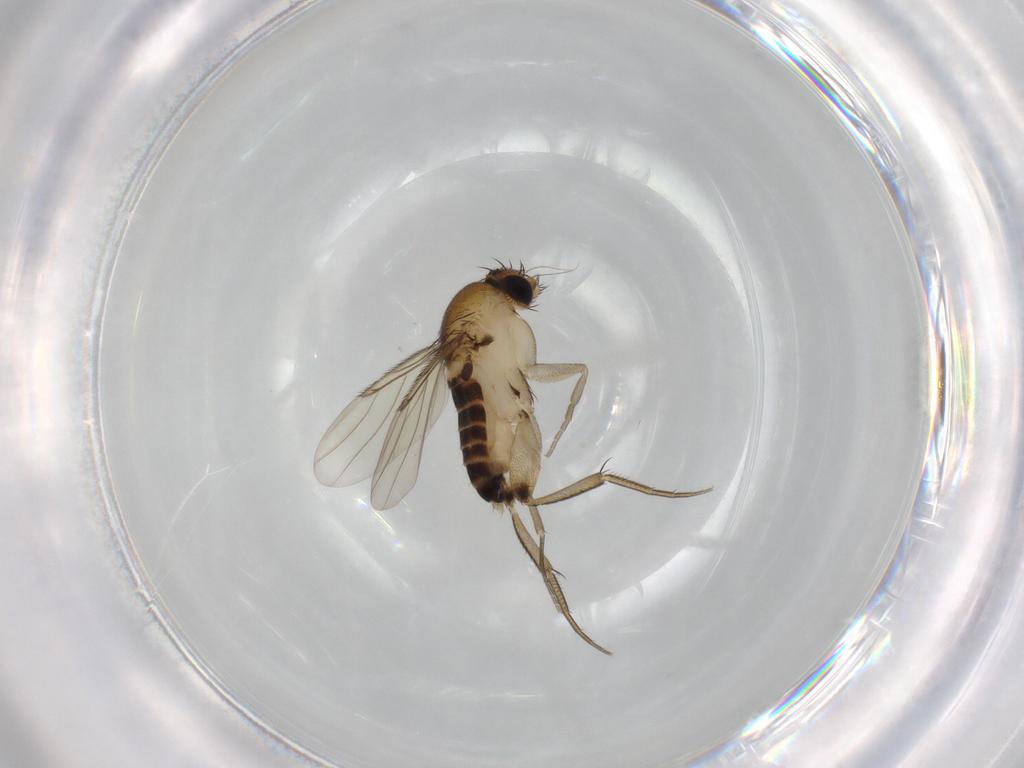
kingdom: Animalia
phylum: Arthropoda
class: Insecta
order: Diptera
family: Phoridae
